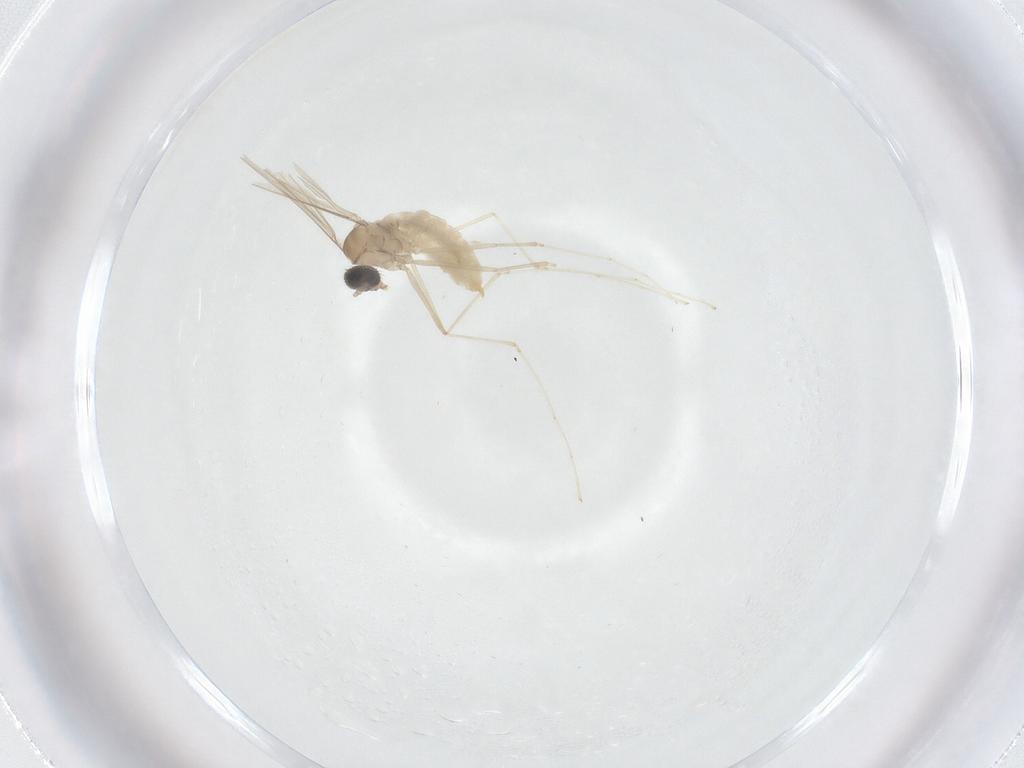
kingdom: Animalia
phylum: Arthropoda
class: Insecta
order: Diptera
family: Cecidomyiidae
